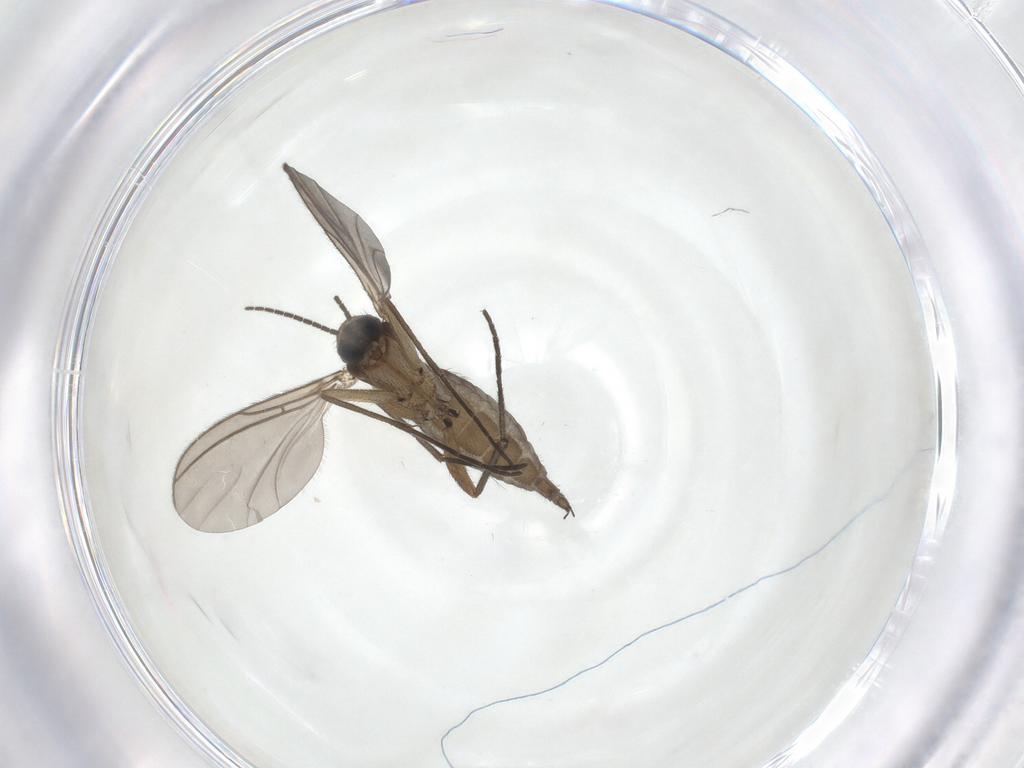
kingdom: Animalia
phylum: Arthropoda
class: Insecta
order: Diptera
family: Sciaridae
